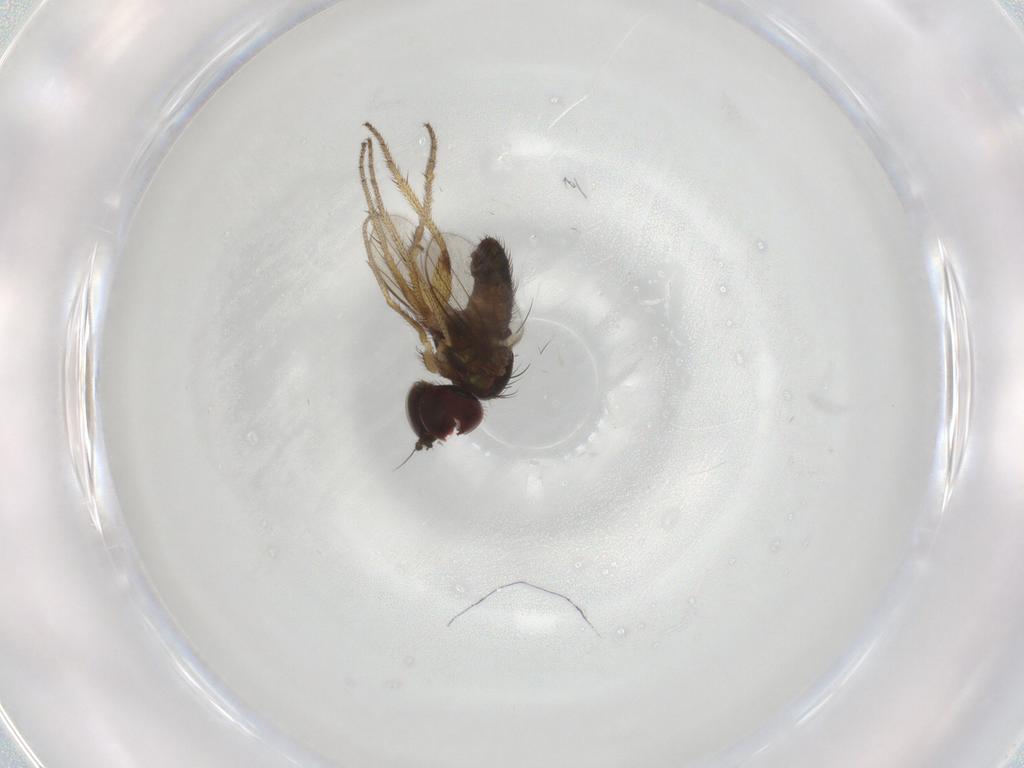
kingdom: Animalia
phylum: Arthropoda
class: Insecta
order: Diptera
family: Dolichopodidae
